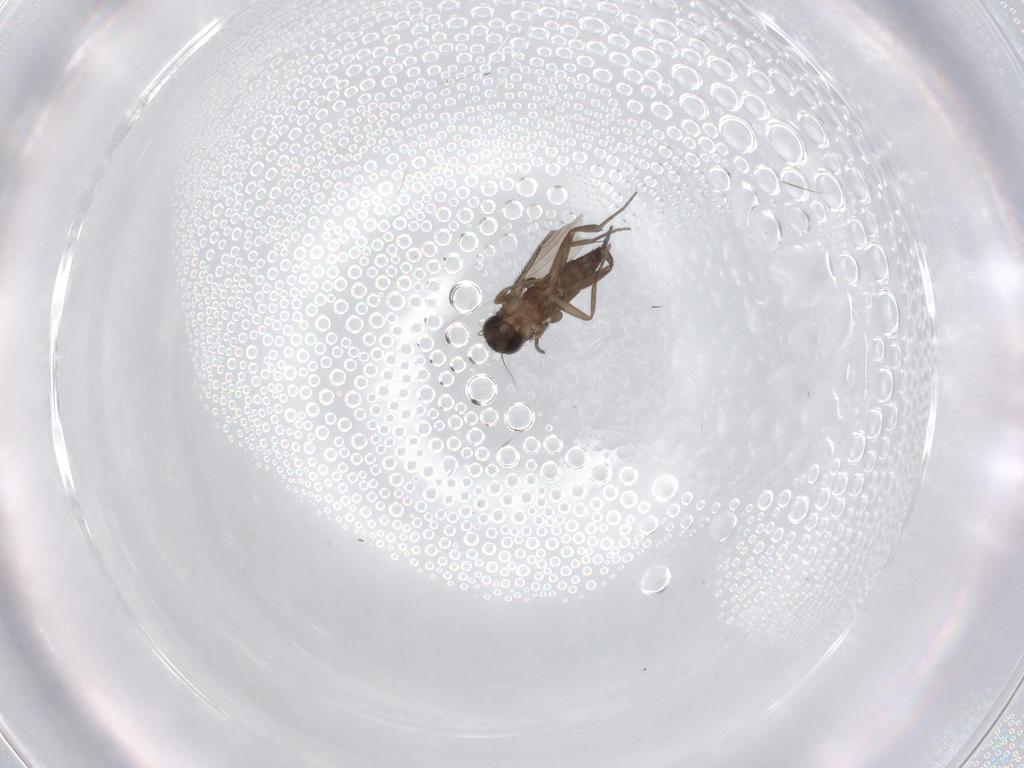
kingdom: Animalia
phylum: Arthropoda
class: Insecta
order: Diptera
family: Phoridae
